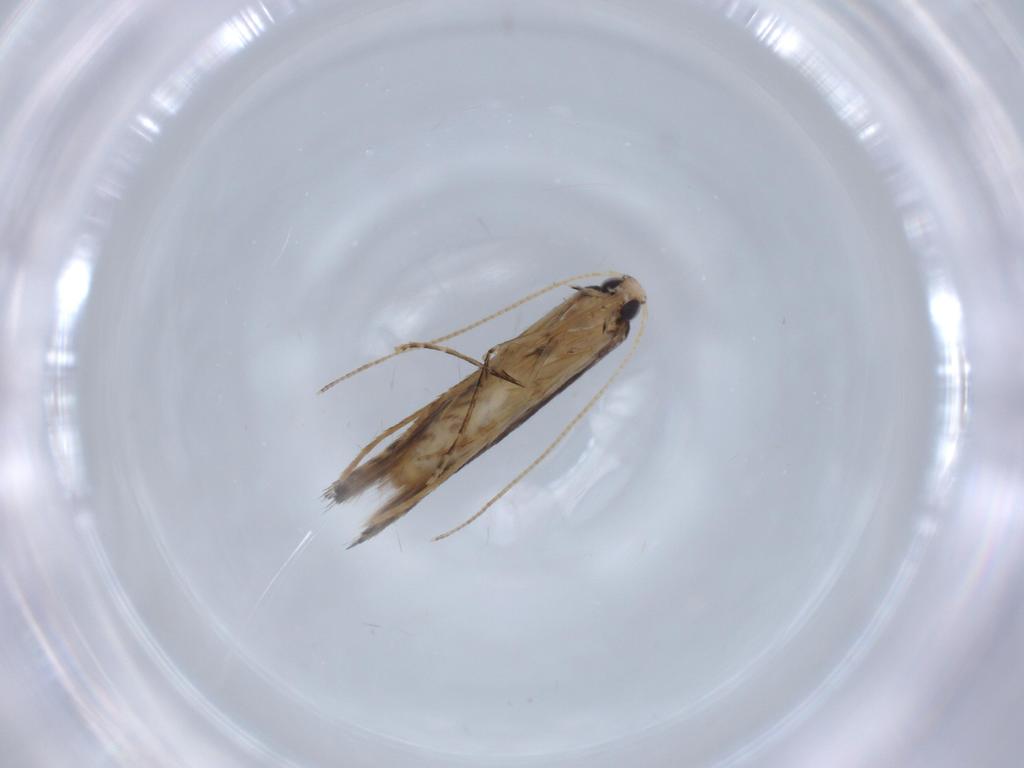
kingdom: Animalia
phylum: Arthropoda
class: Insecta
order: Lepidoptera
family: Gracillariidae
